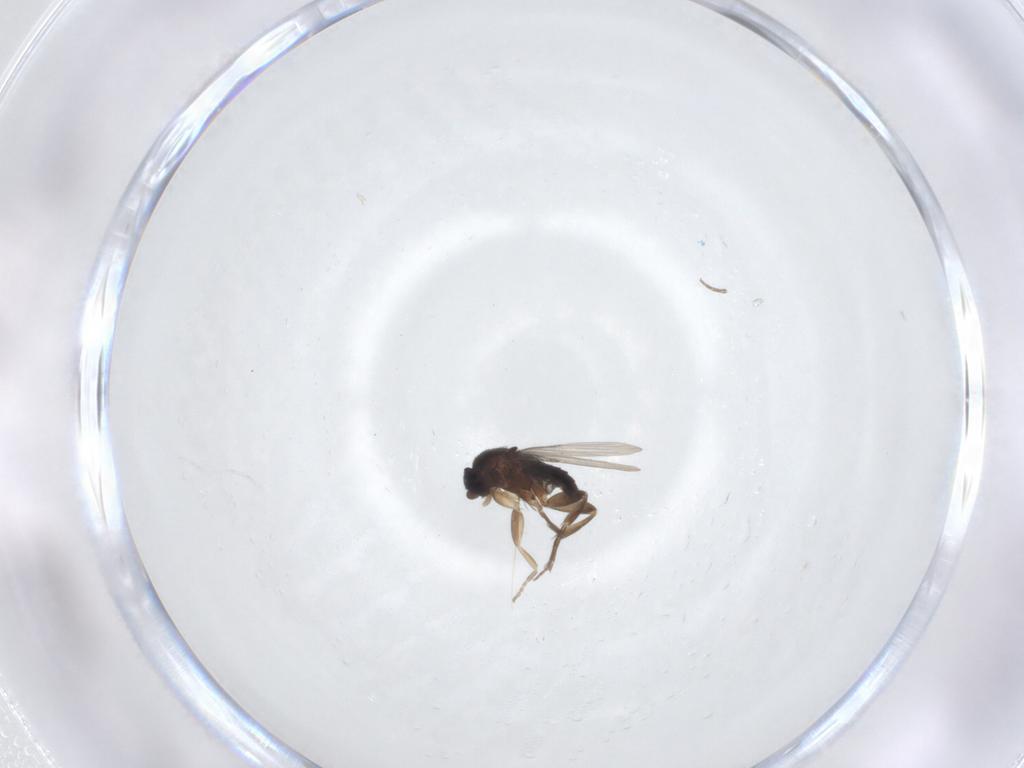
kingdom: Animalia
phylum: Arthropoda
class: Insecta
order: Diptera
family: Phoridae
